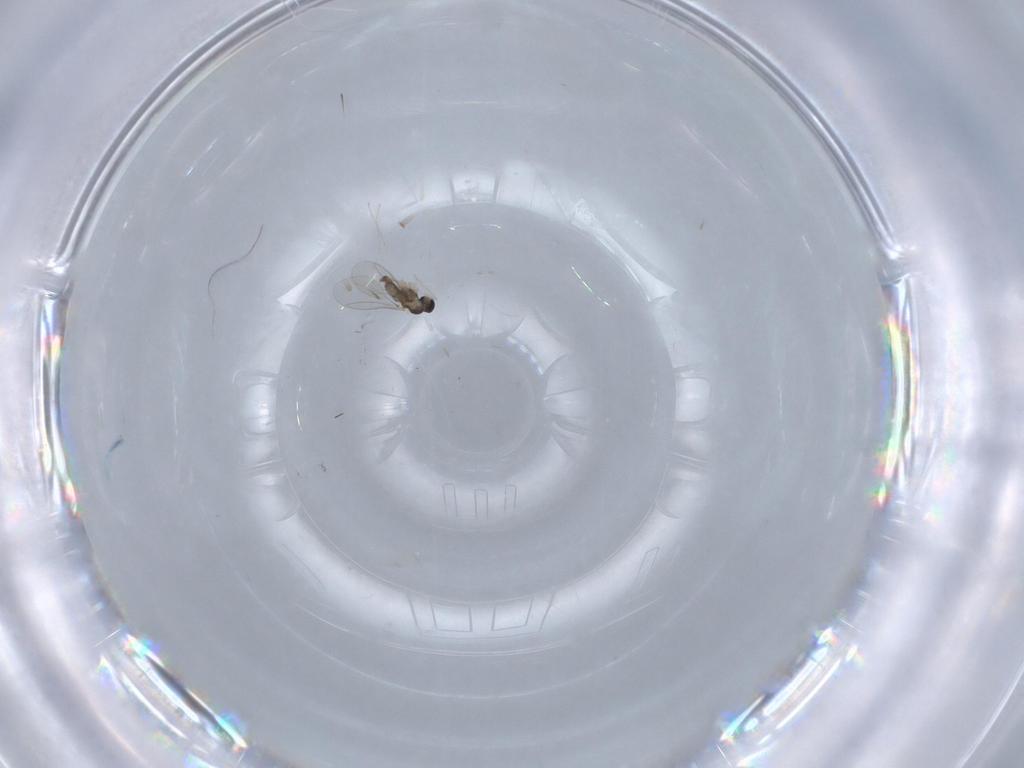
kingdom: Animalia
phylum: Arthropoda
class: Insecta
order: Diptera
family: Cecidomyiidae
